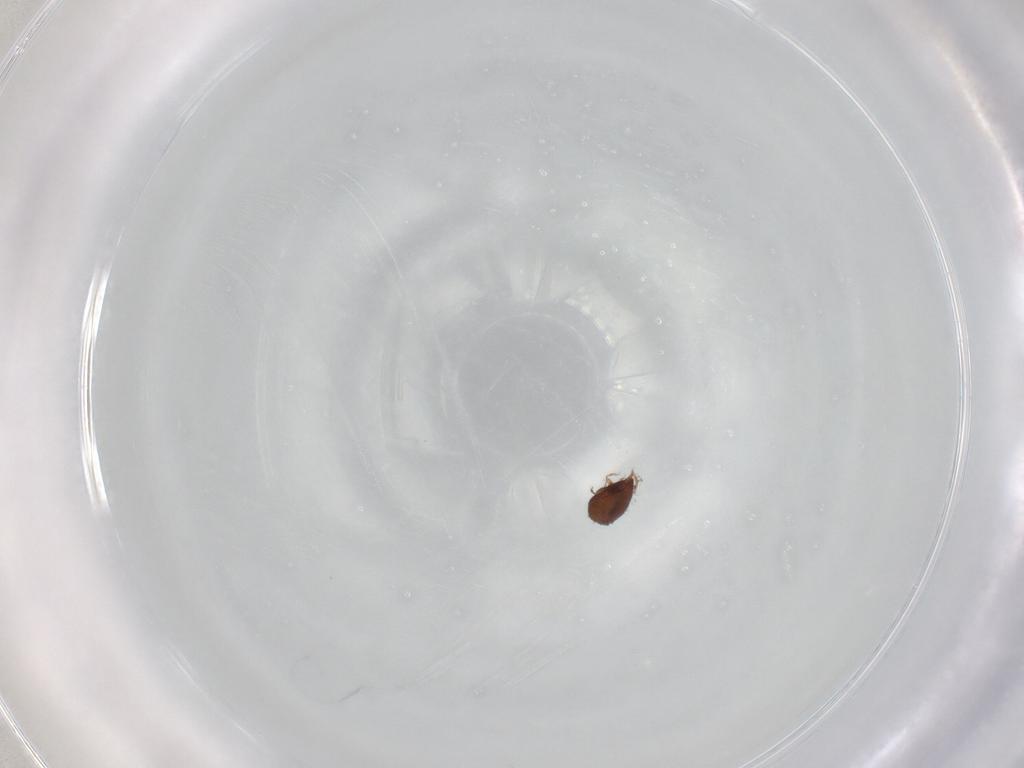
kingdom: Animalia
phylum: Arthropoda
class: Arachnida
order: Sarcoptiformes
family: Haplozetidae
